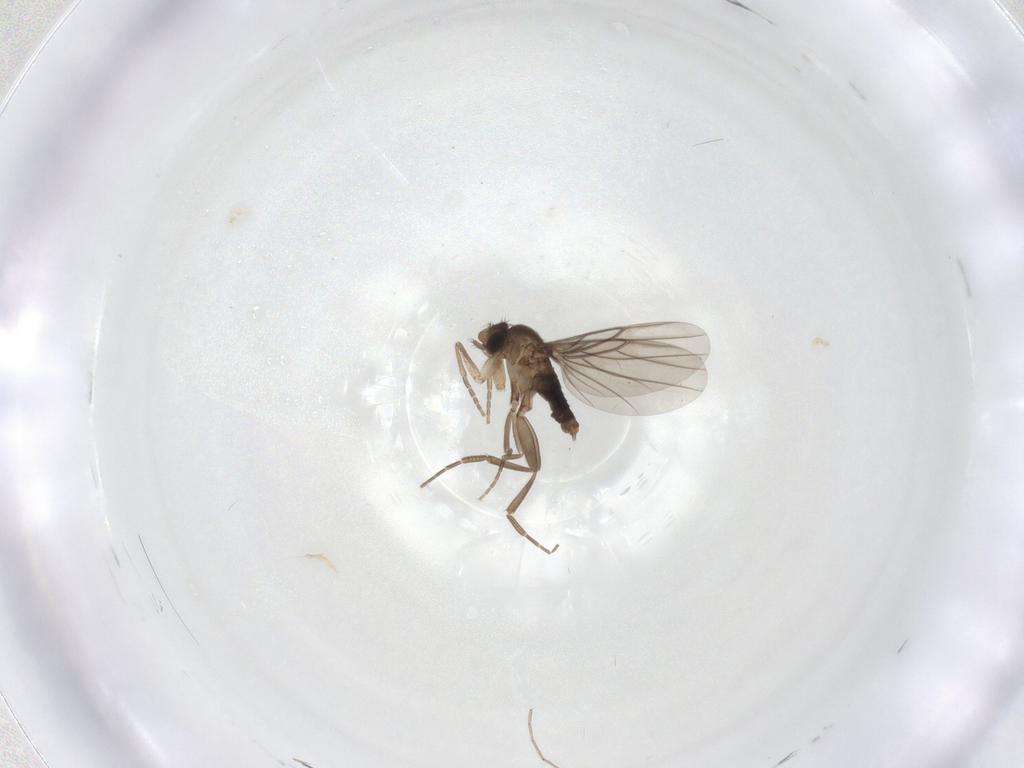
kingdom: Animalia
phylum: Arthropoda
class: Insecta
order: Diptera
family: Cecidomyiidae
